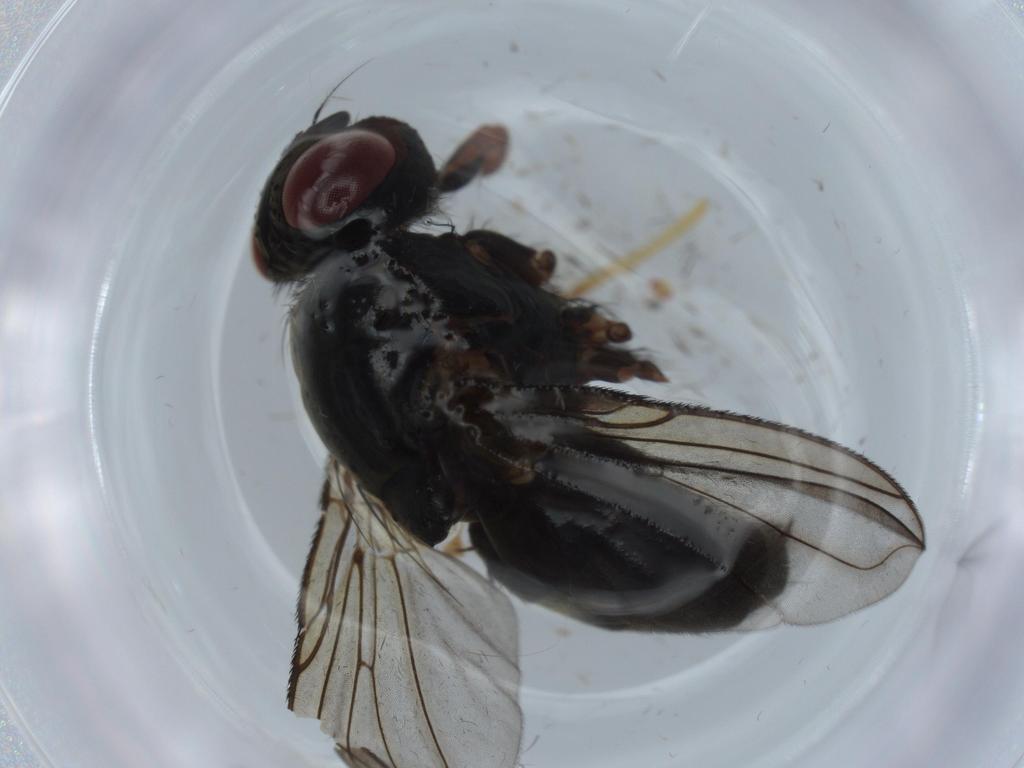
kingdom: Animalia
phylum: Arthropoda
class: Insecta
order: Diptera
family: Calliphoridae
